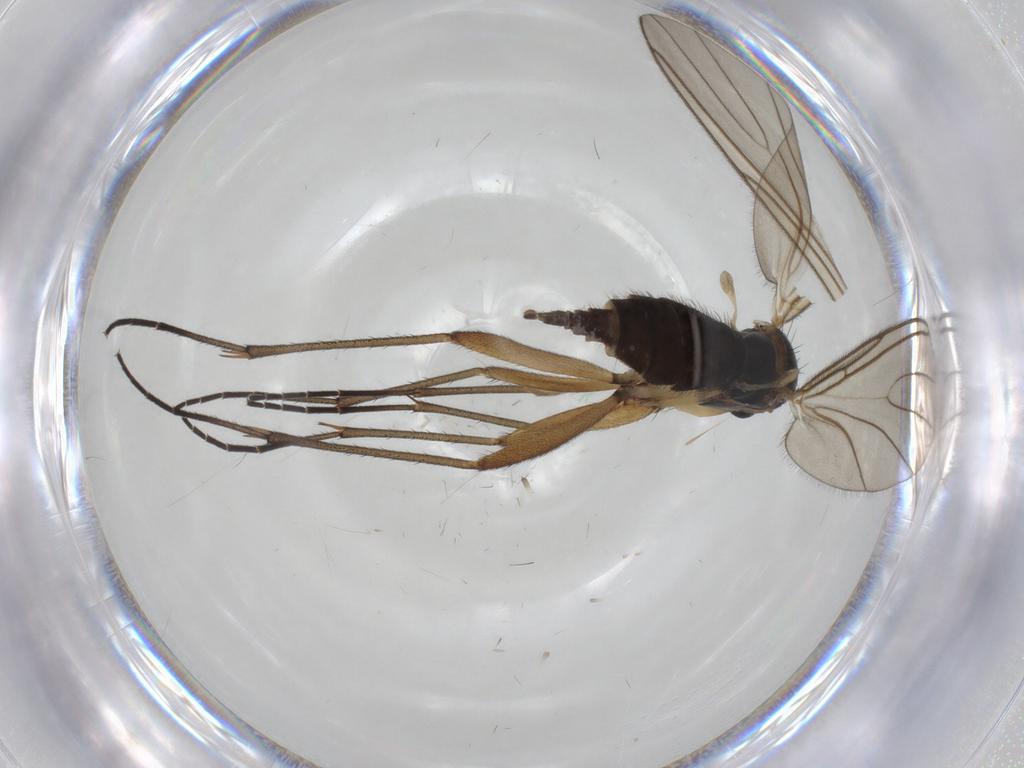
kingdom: Animalia
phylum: Arthropoda
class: Insecta
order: Diptera
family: Sciaridae
